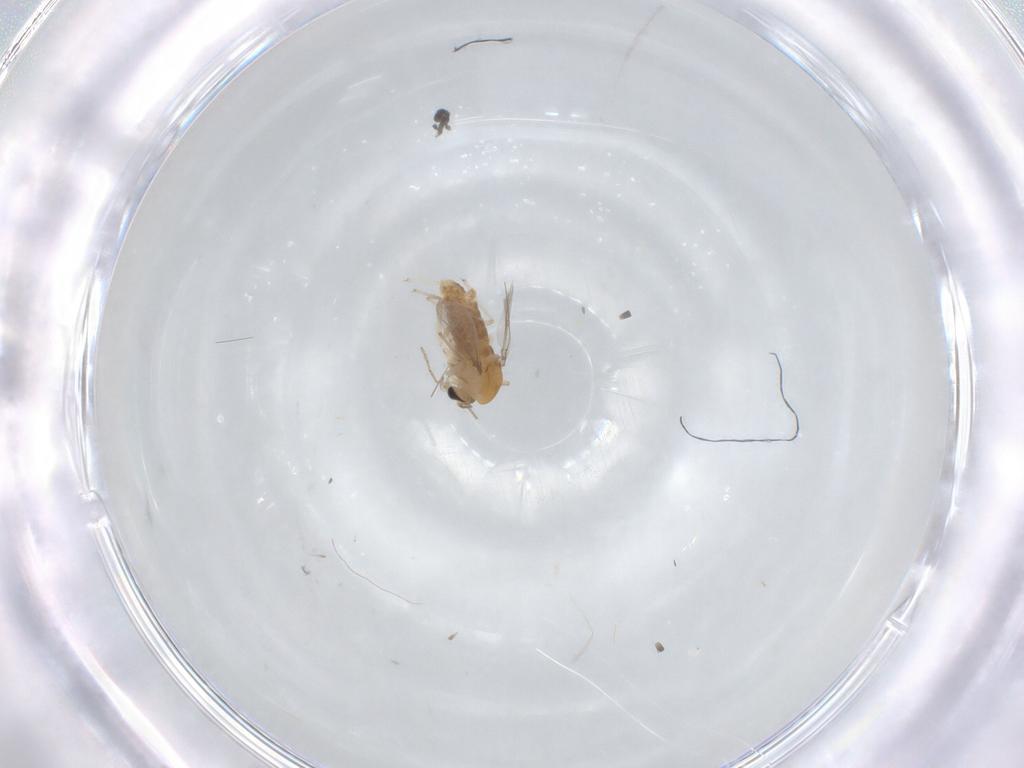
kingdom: Animalia
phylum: Arthropoda
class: Insecta
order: Diptera
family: Chironomidae
